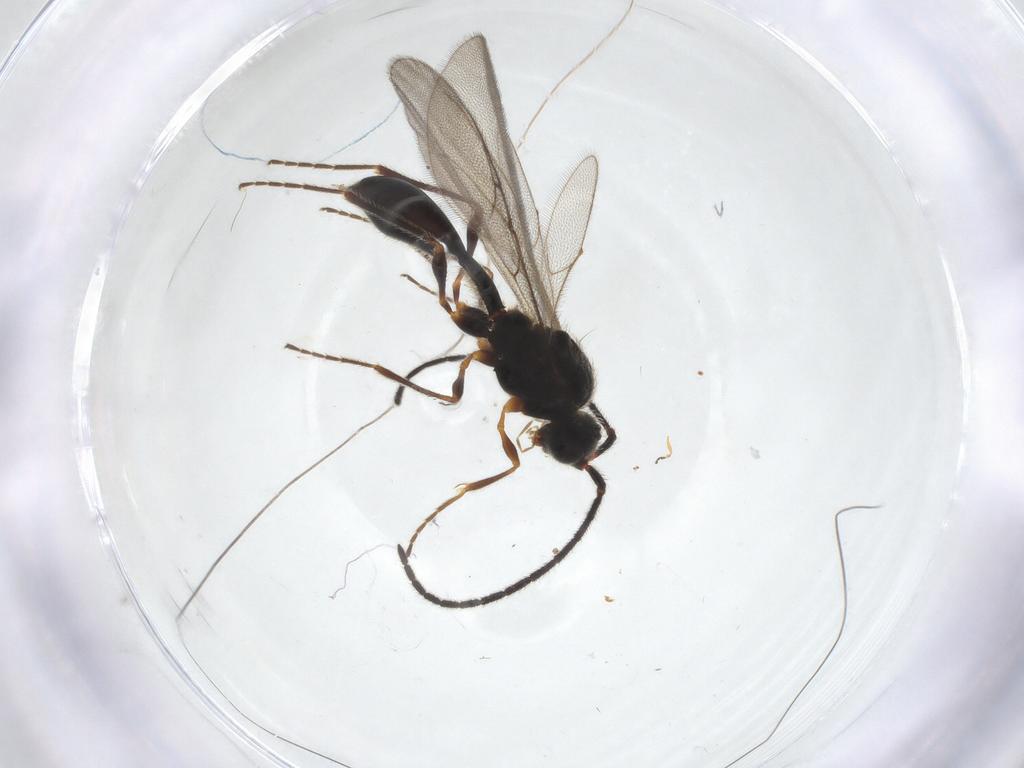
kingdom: Animalia
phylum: Arthropoda
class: Insecta
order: Hymenoptera
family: Diapriidae
